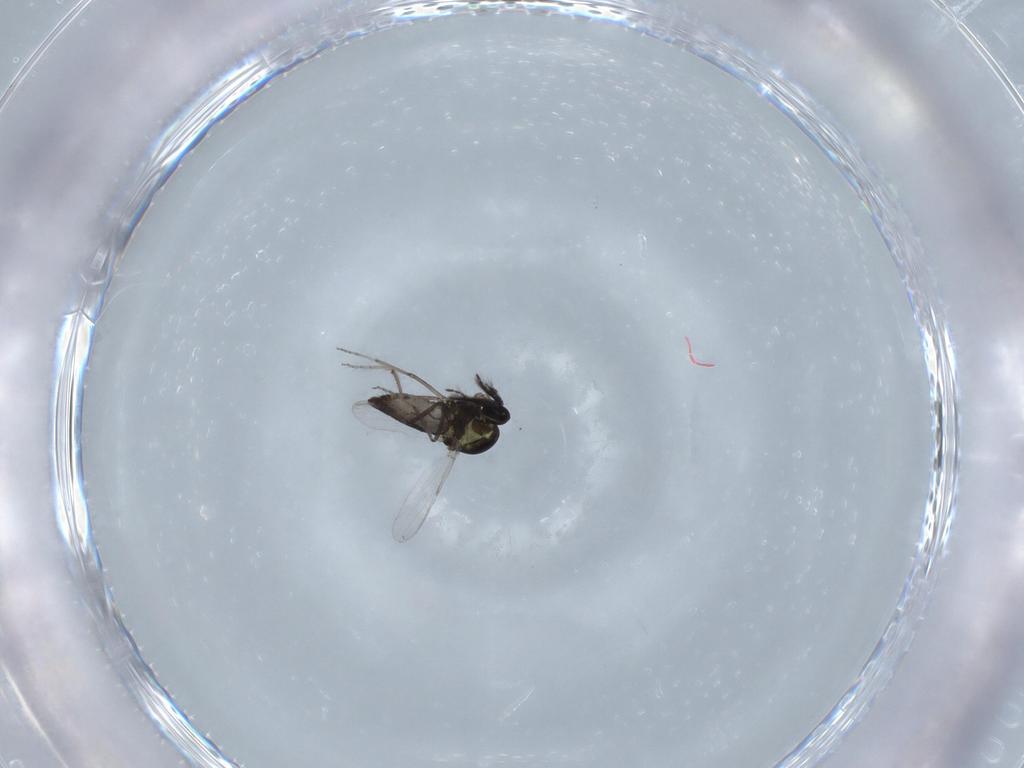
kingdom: Animalia
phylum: Arthropoda
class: Insecta
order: Diptera
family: Ceratopogonidae
